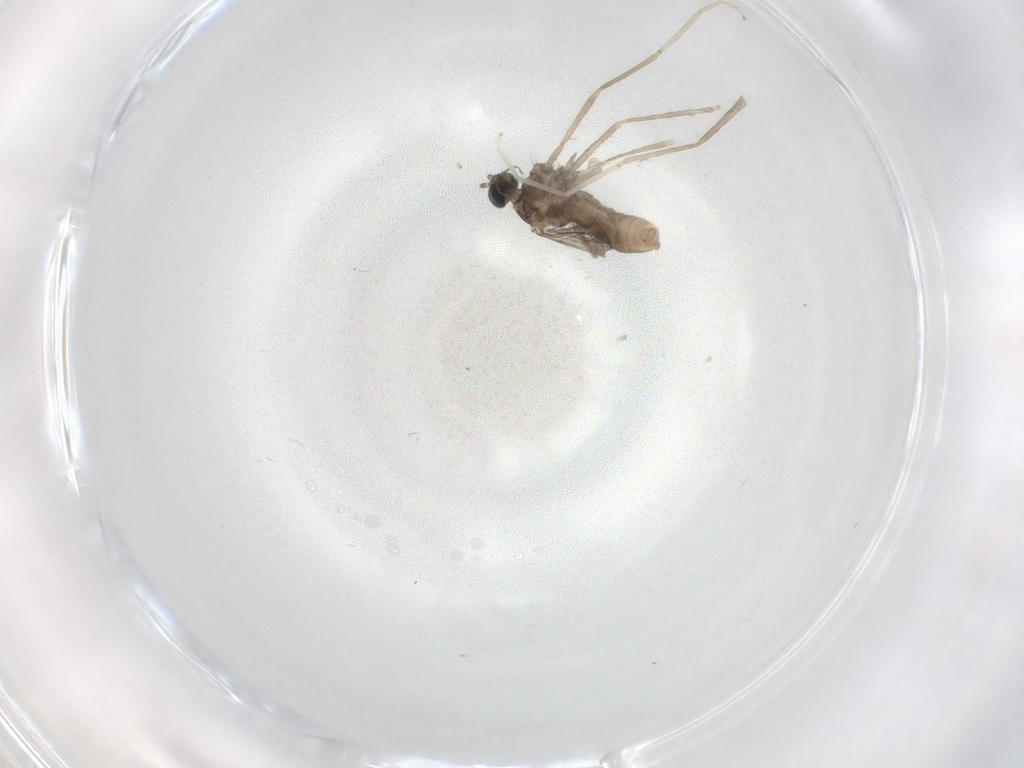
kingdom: Animalia
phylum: Arthropoda
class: Insecta
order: Diptera
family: Cecidomyiidae
